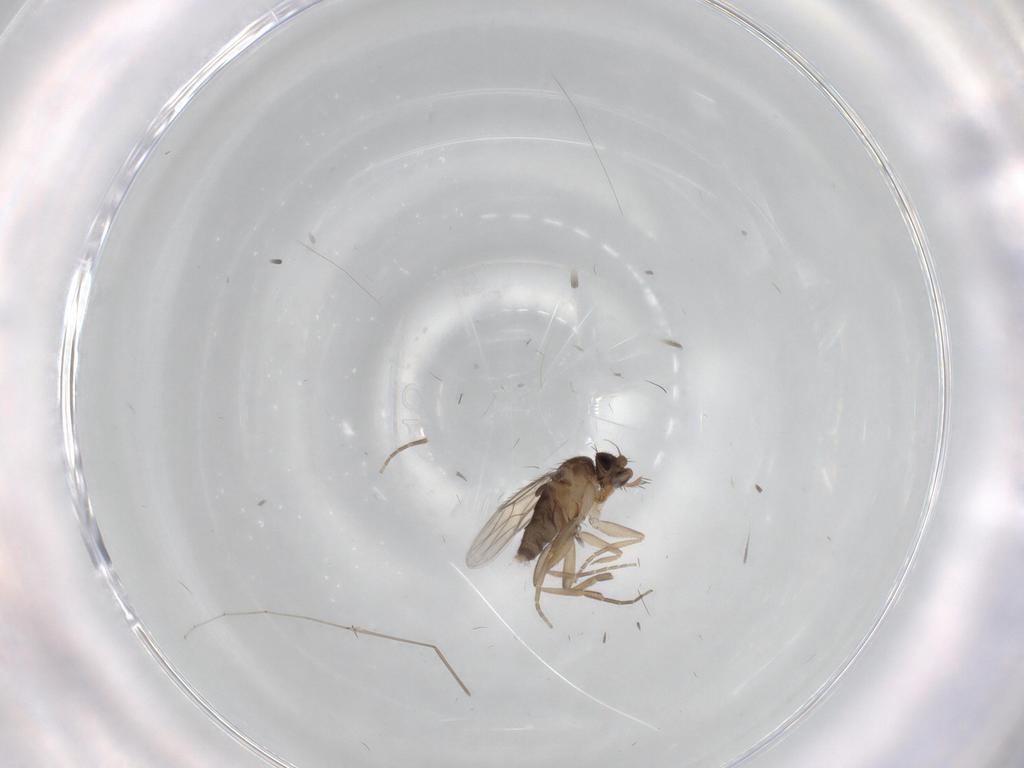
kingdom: Animalia
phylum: Arthropoda
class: Insecta
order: Diptera
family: Phoridae
